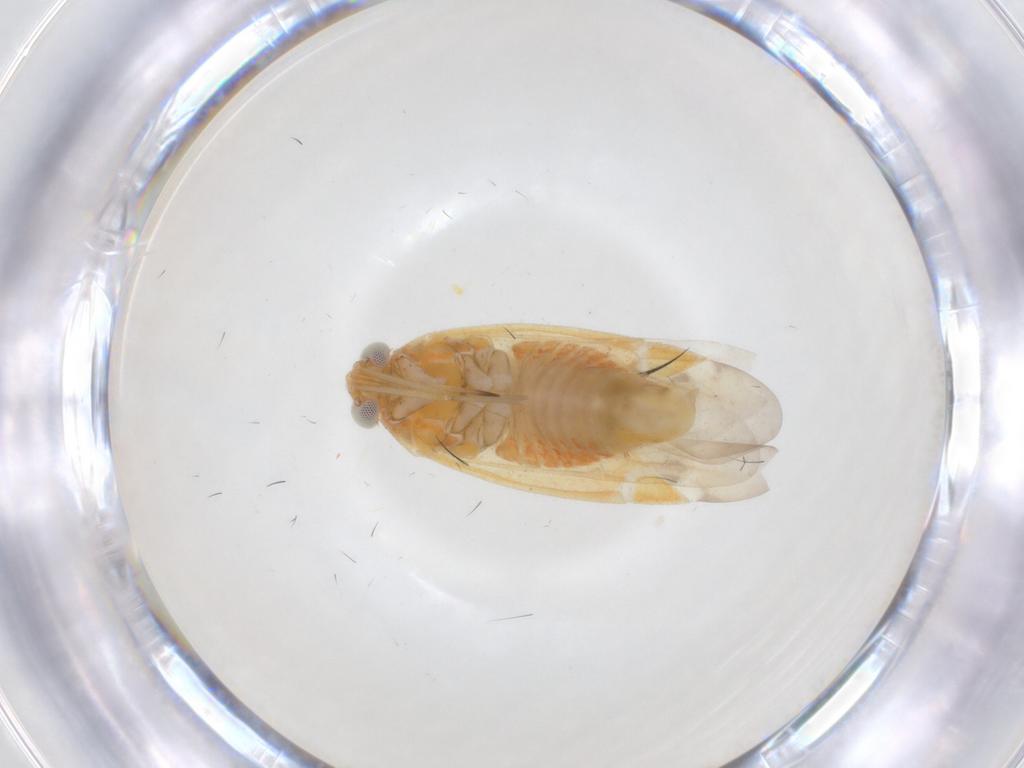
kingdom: Animalia
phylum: Arthropoda
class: Insecta
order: Hemiptera
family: Miridae
